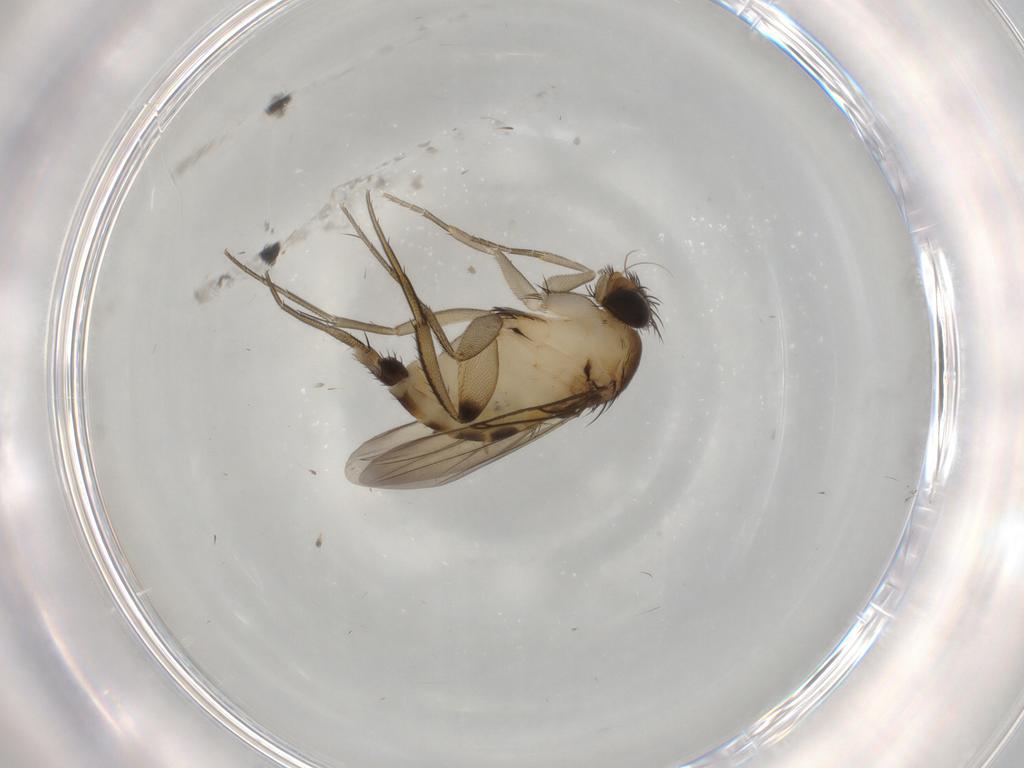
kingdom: Animalia
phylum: Arthropoda
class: Insecta
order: Diptera
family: Phoridae
